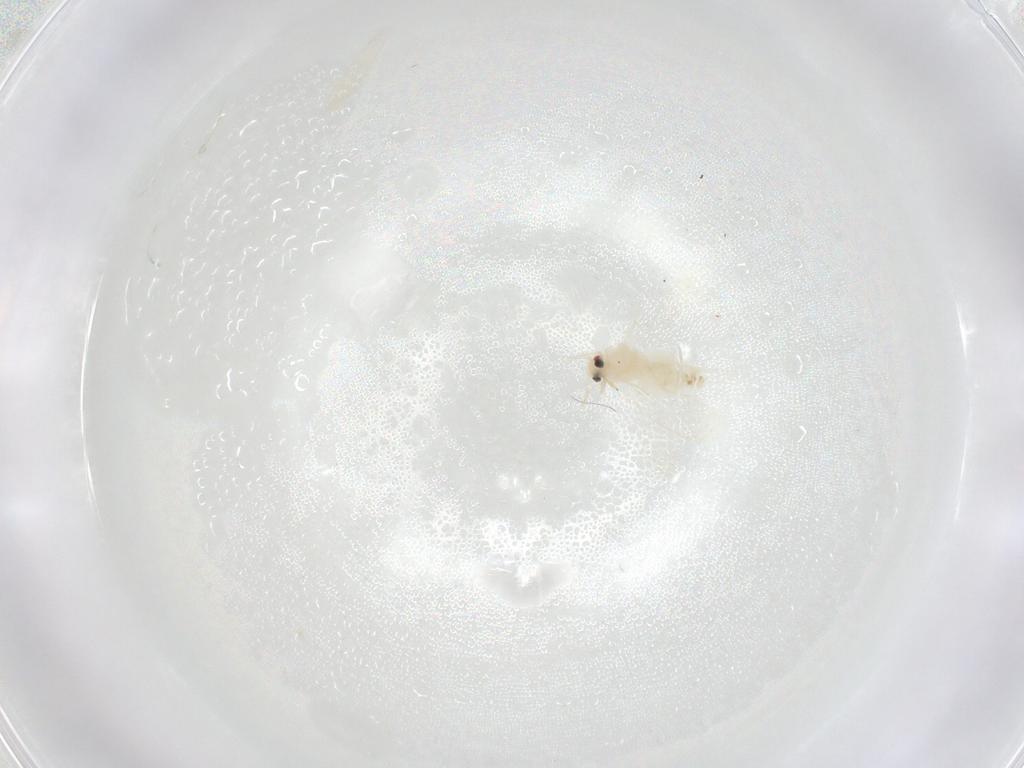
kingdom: Animalia
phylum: Arthropoda
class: Insecta
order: Hemiptera
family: Aleyrodidae
